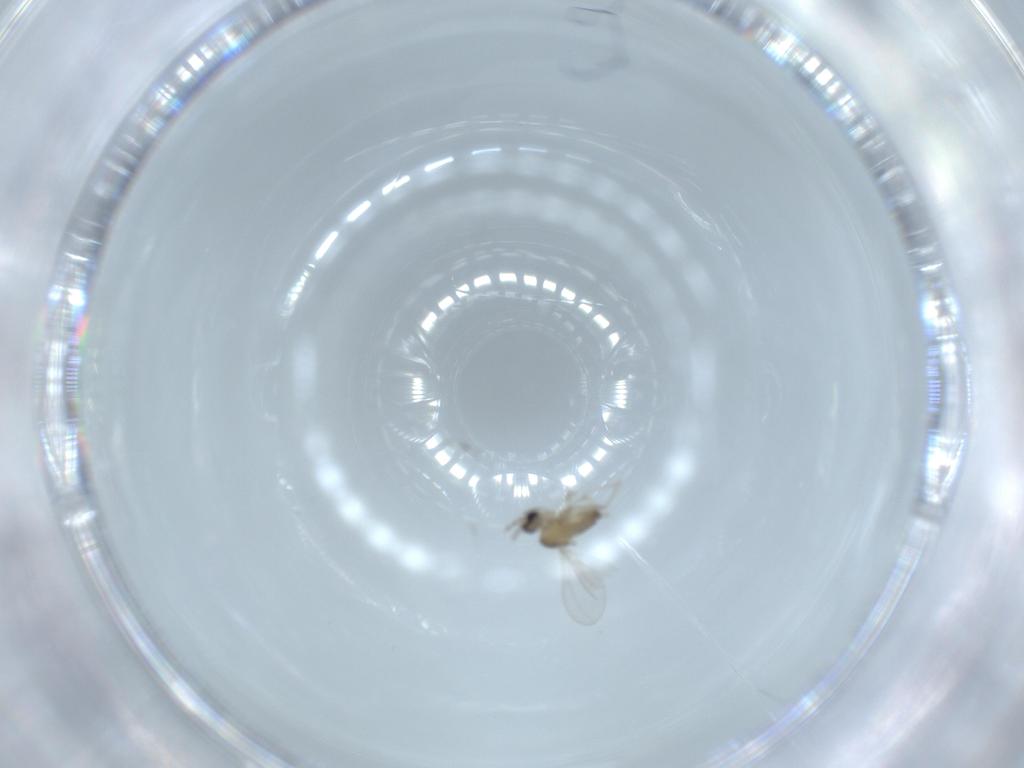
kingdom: Animalia
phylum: Arthropoda
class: Insecta
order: Diptera
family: Cecidomyiidae
